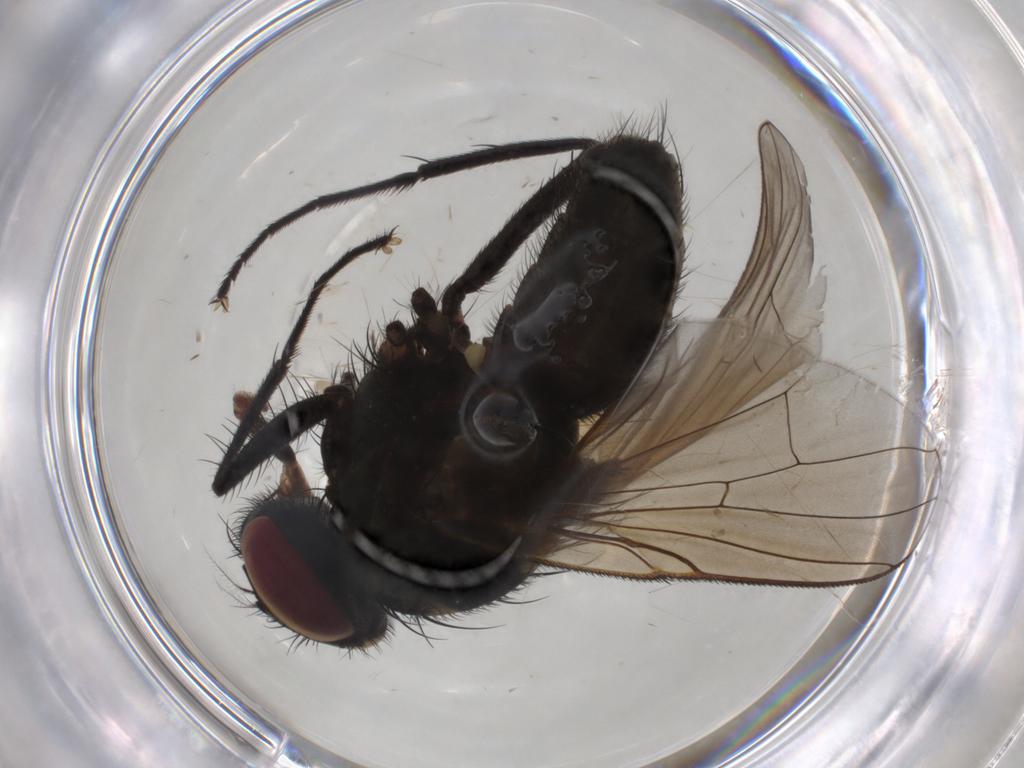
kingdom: Animalia
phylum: Arthropoda
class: Insecta
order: Diptera
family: Muscidae
